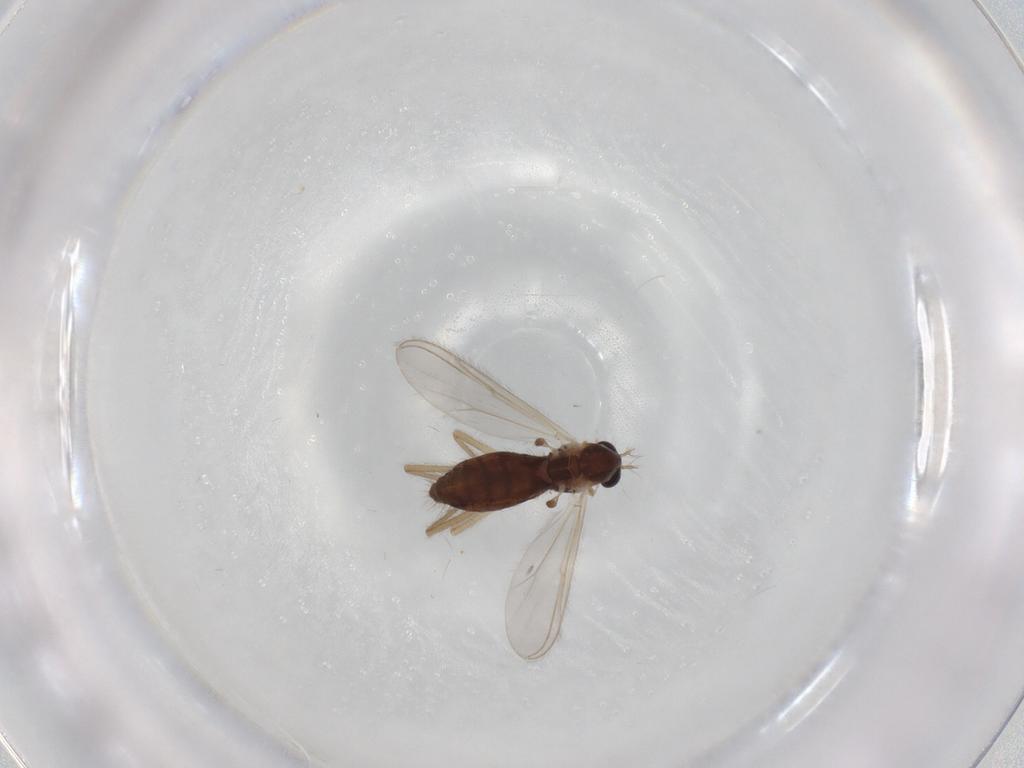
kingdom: Animalia
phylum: Arthropoda
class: Insecta
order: Diptera
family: Chironomidae
